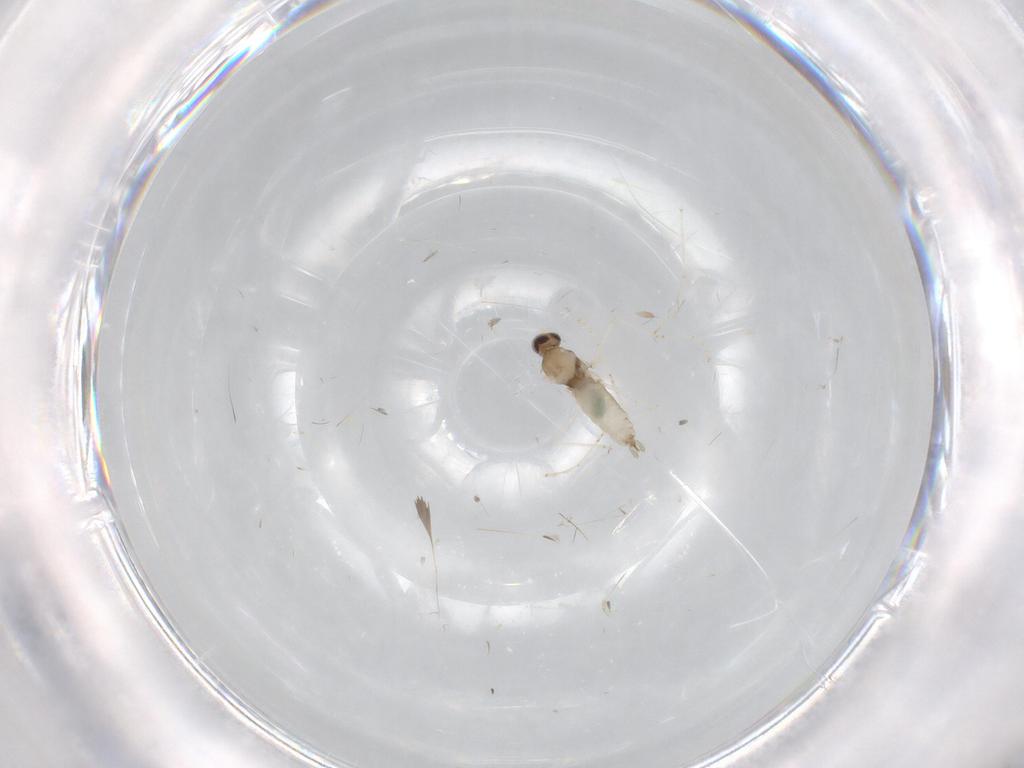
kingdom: Animalia
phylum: Arthropoda
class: Insecta
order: Diptera
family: Cecidomyiidae
